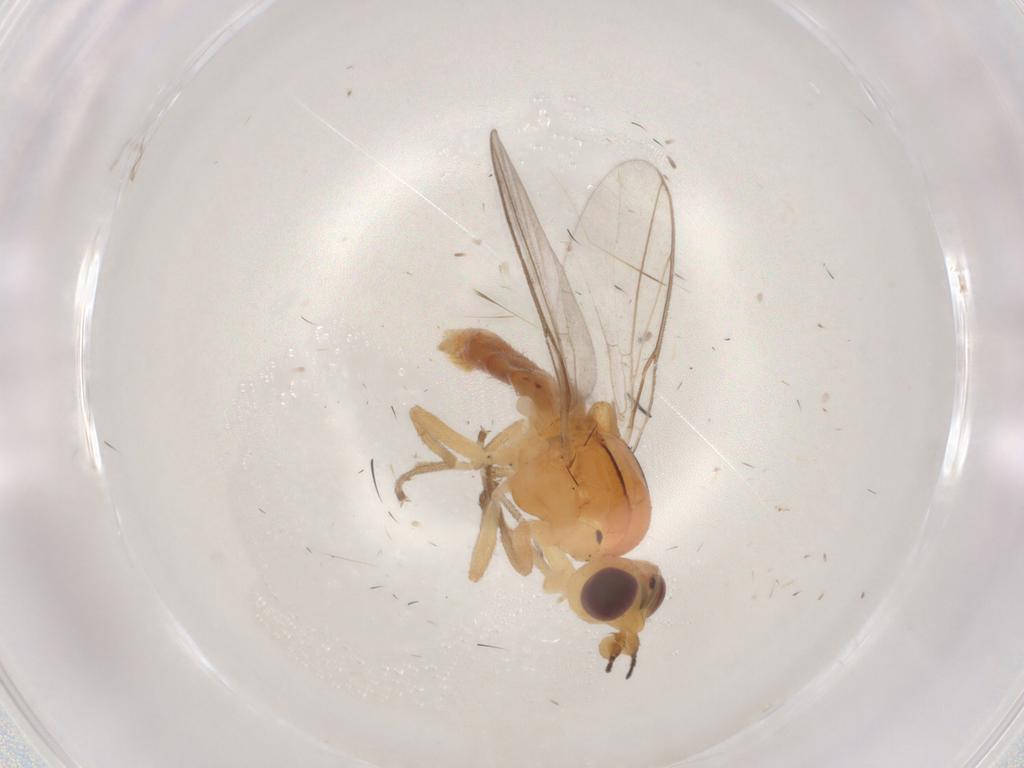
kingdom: Animalia
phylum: Arthropoda
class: Insecta
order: Diptera
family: Chloropidae
